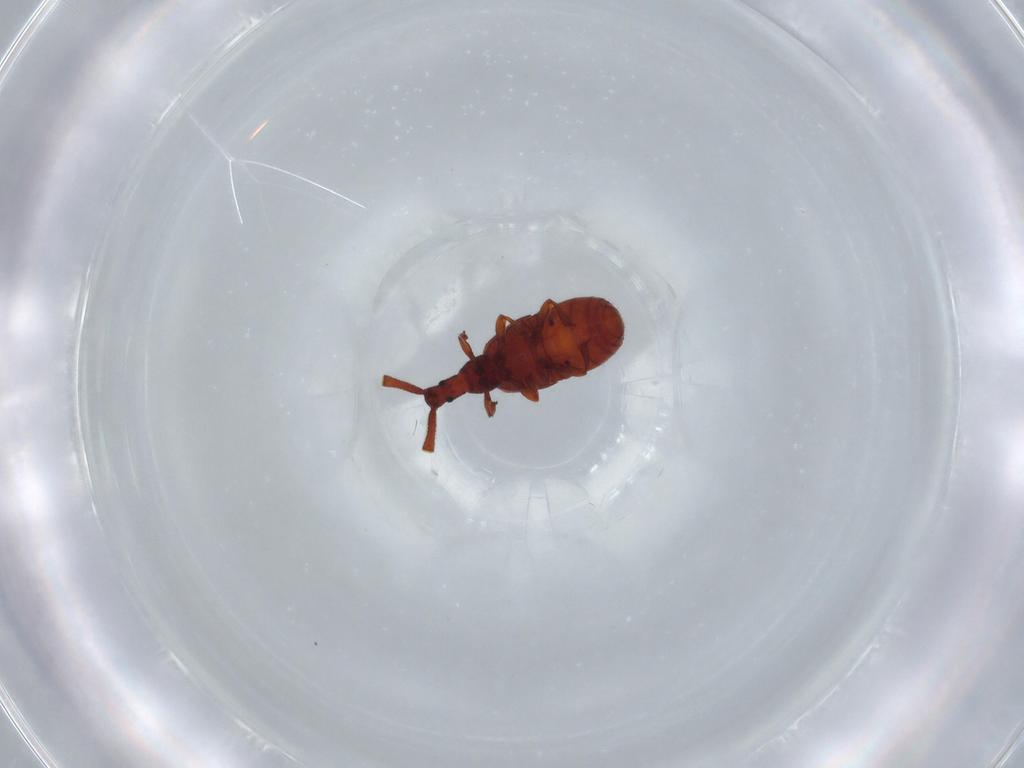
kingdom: Animalia
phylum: Arthropoda
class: Insecta
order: Coleoptera
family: Staphylinidae
